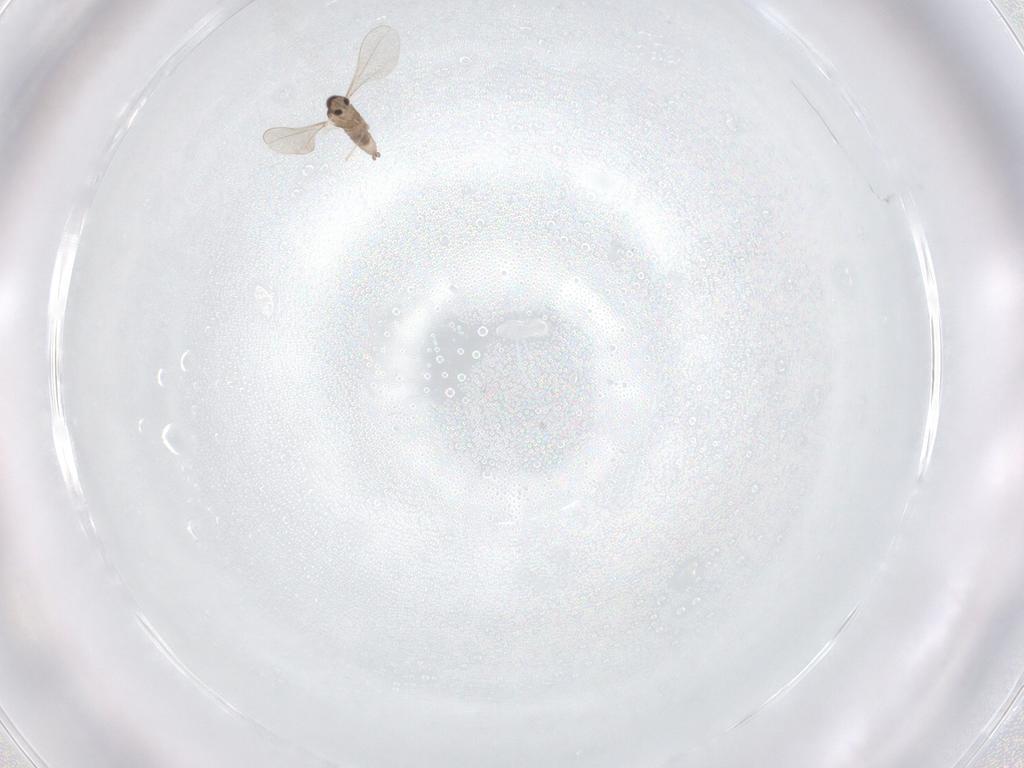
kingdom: Animalia
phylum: Arthropoda
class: Insecta
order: Diptera
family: Cecidomyiidae
